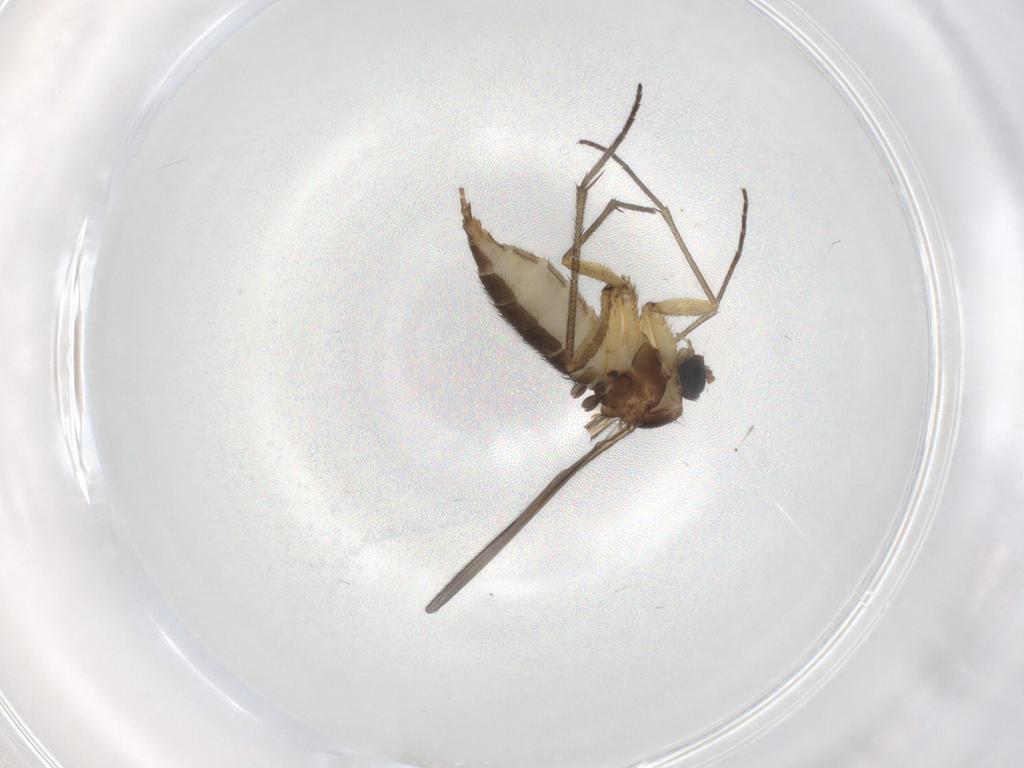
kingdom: Animalia
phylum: Arthropoda
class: Insecta
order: Diptera
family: Sciaridae
